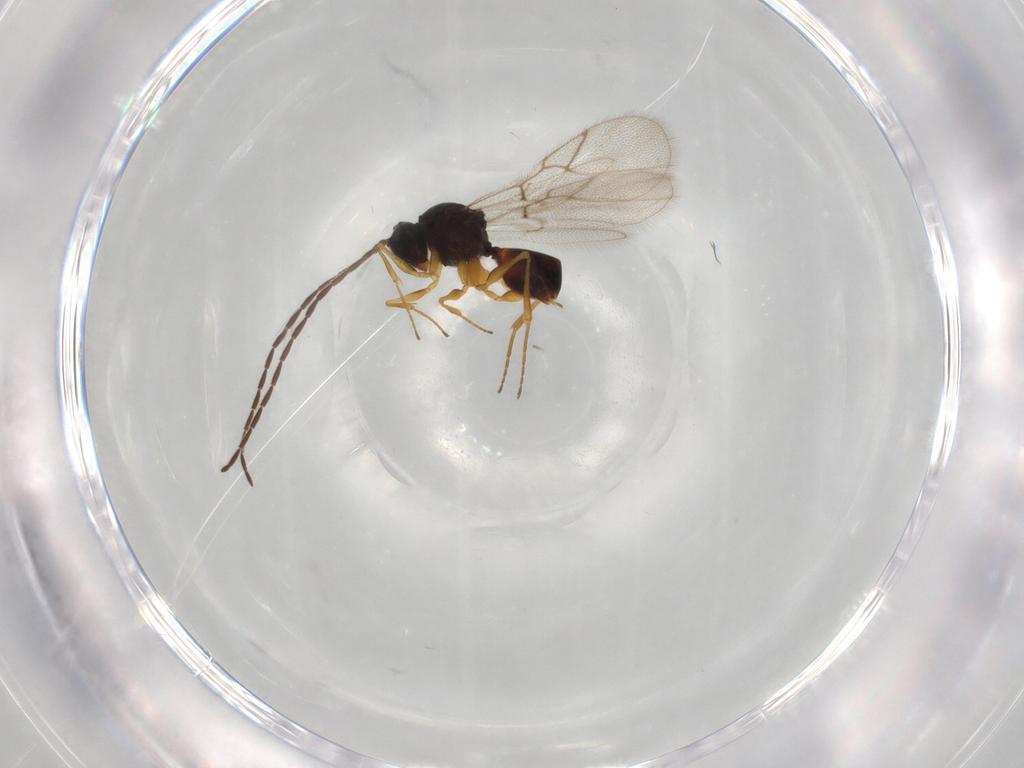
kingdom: Animalia
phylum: Arthropoda
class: Insecta
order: Hymenoptera
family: Figitidae
